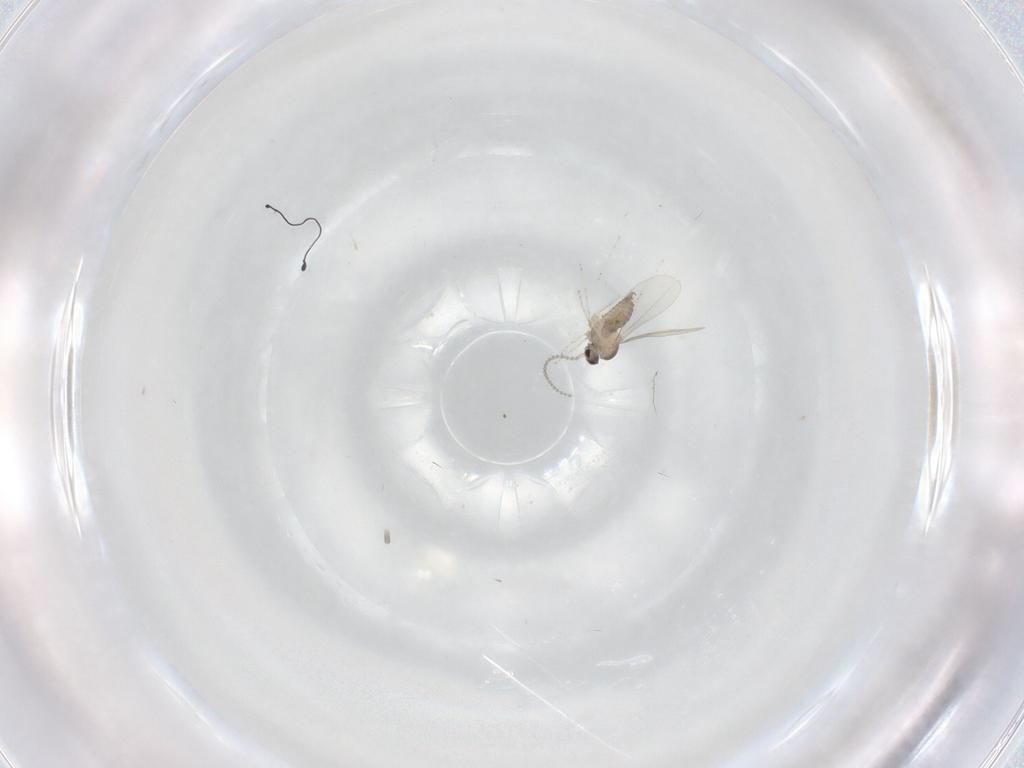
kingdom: Animalia
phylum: Arthropoda
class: Insecta
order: Diptera
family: Cecidomyiidae
